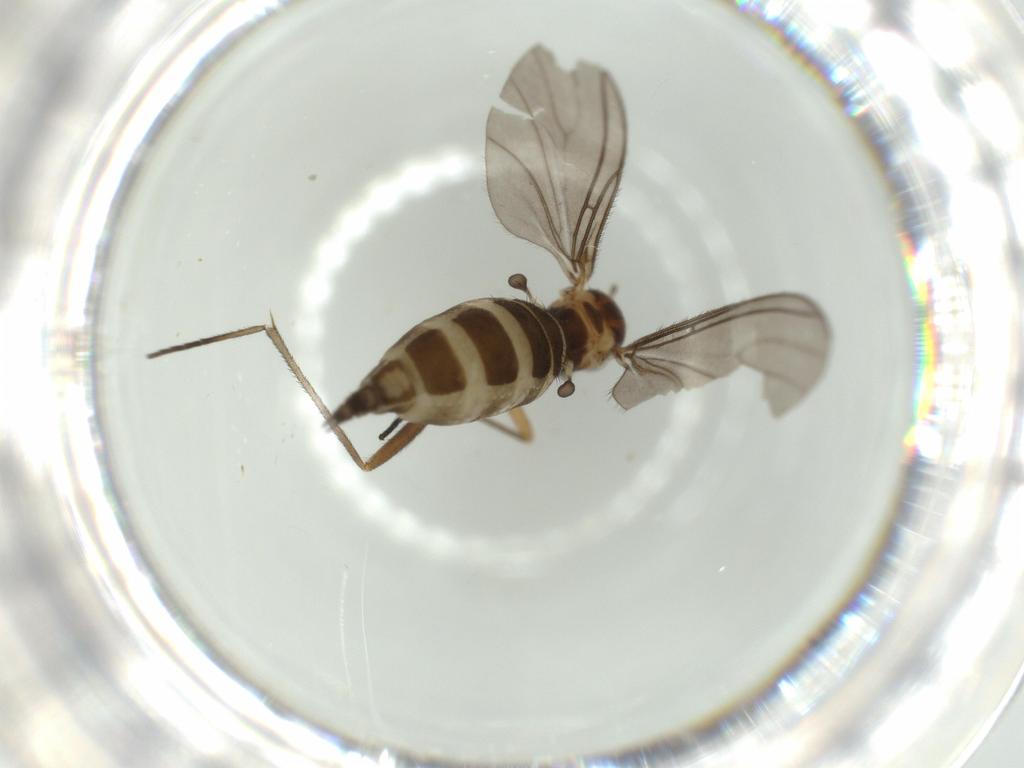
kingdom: Animalia
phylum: Arthropoda
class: Insecta
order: Diptera
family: Sciaridae
